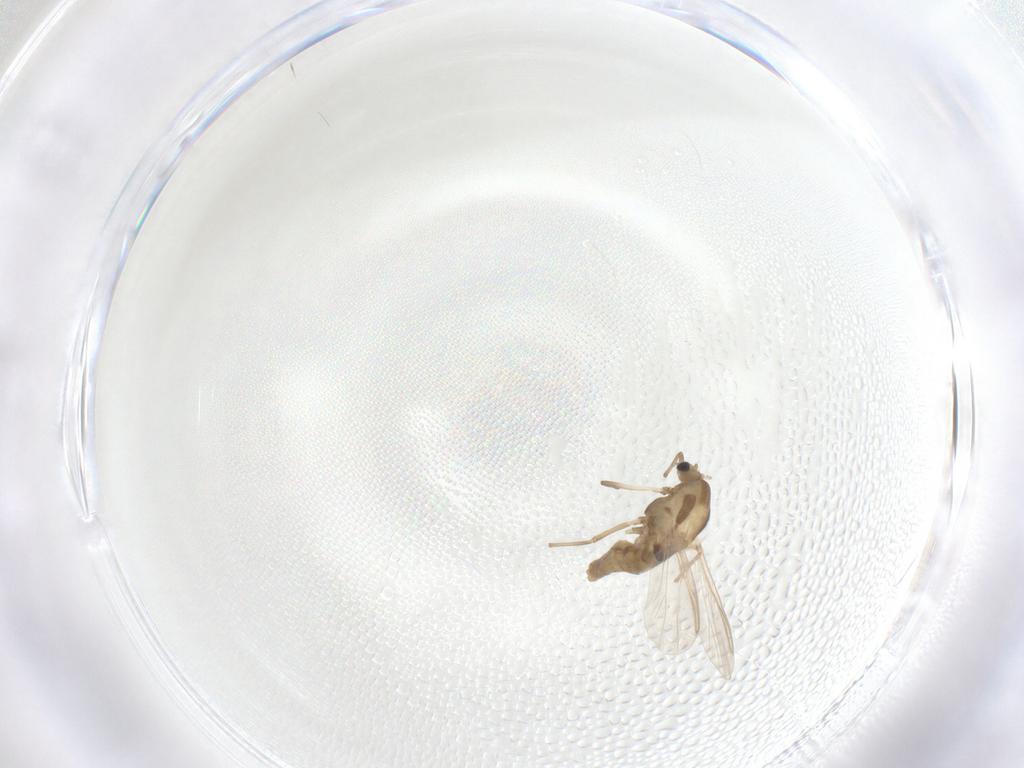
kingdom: Animalia
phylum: Arthropoda
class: Insecta
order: Diptera
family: Chironomidae
